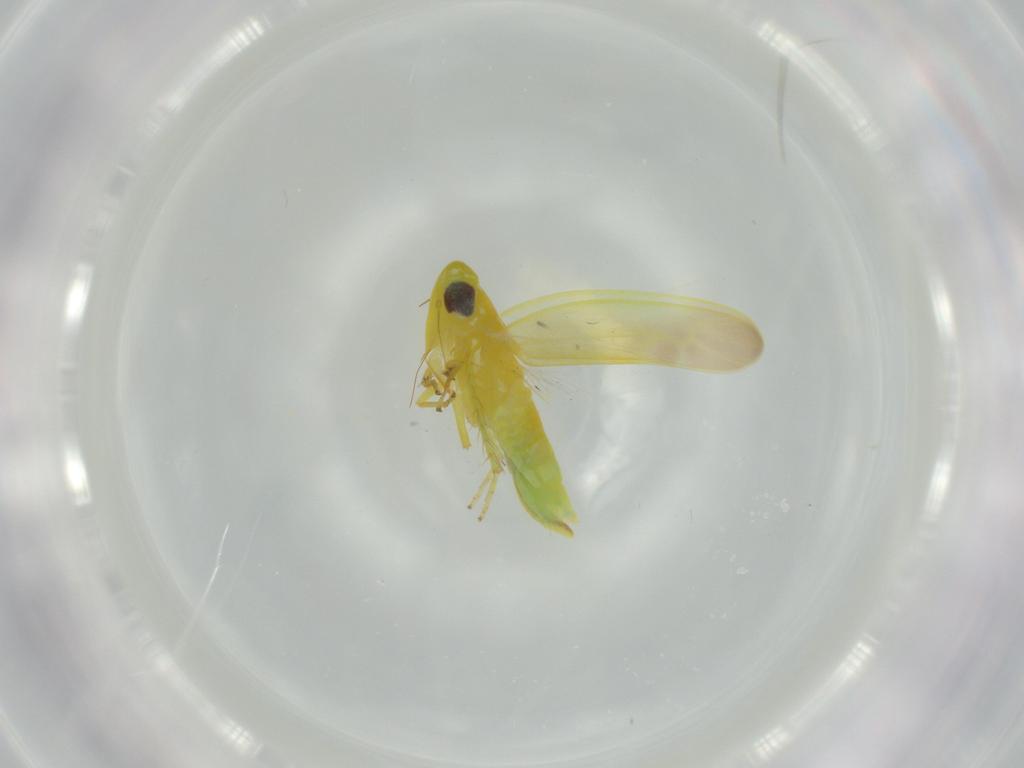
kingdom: Animalia
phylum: Arthropoda
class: Insecta
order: Hemiptera
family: Cicadellidae
